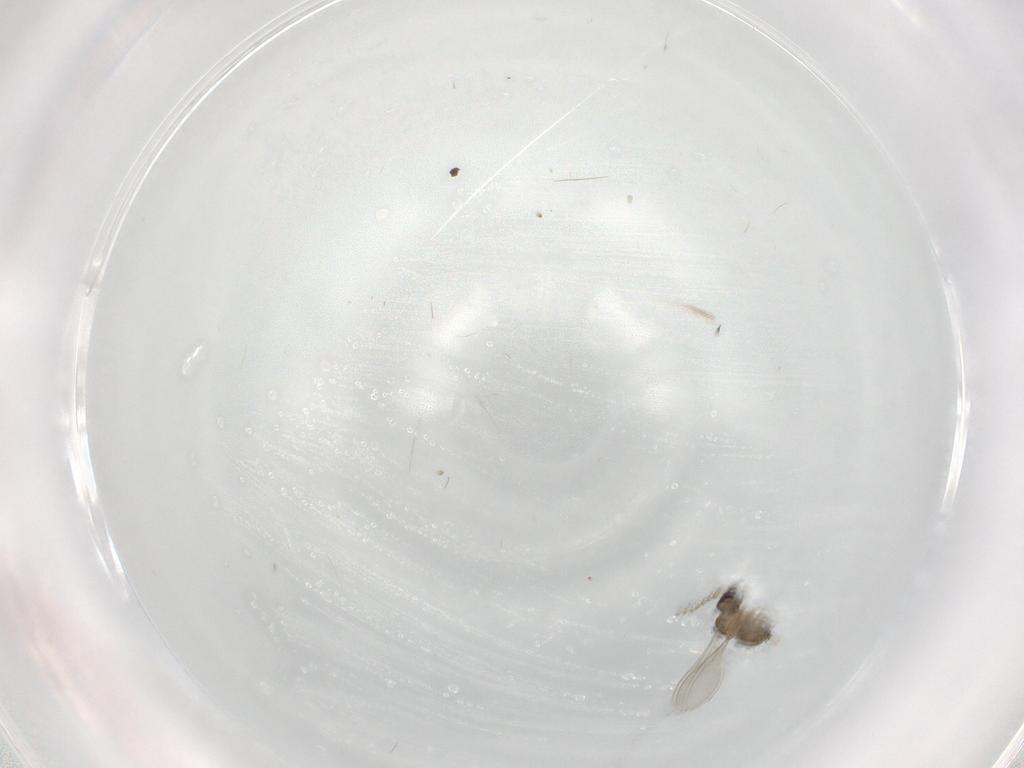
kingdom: Animalia
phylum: Arthropoda
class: Insecta
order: Diptera
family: Cecidomyiidae
